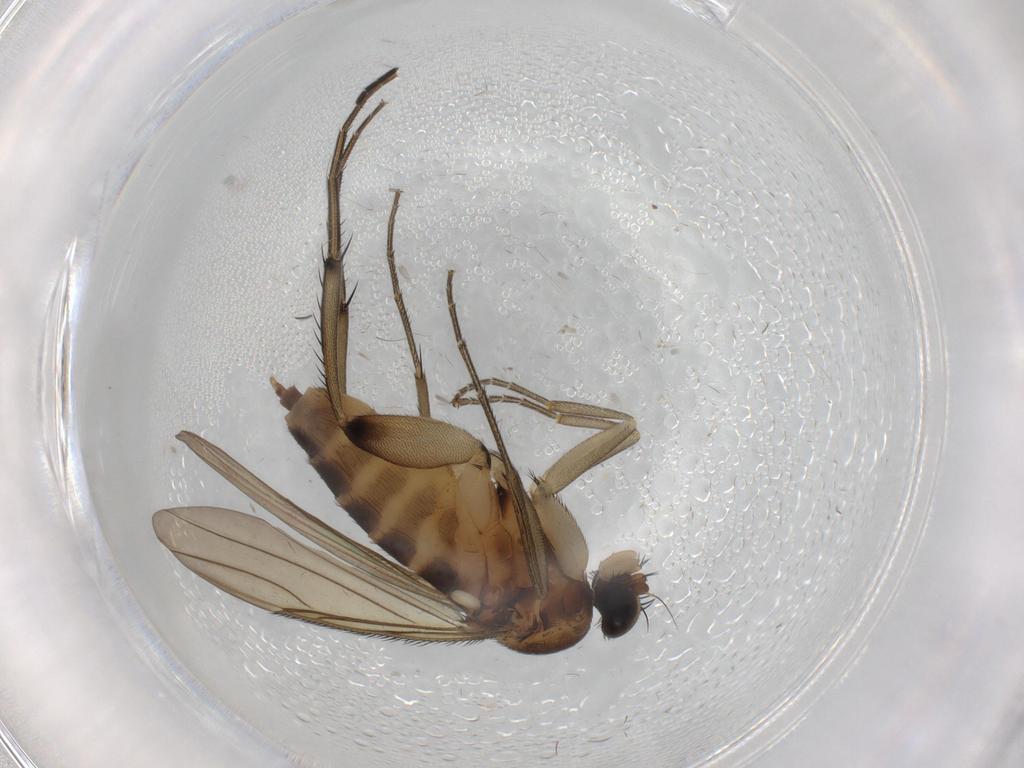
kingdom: Animalia
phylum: Arthropoda
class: Insecta
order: Diptera
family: Phoridae
